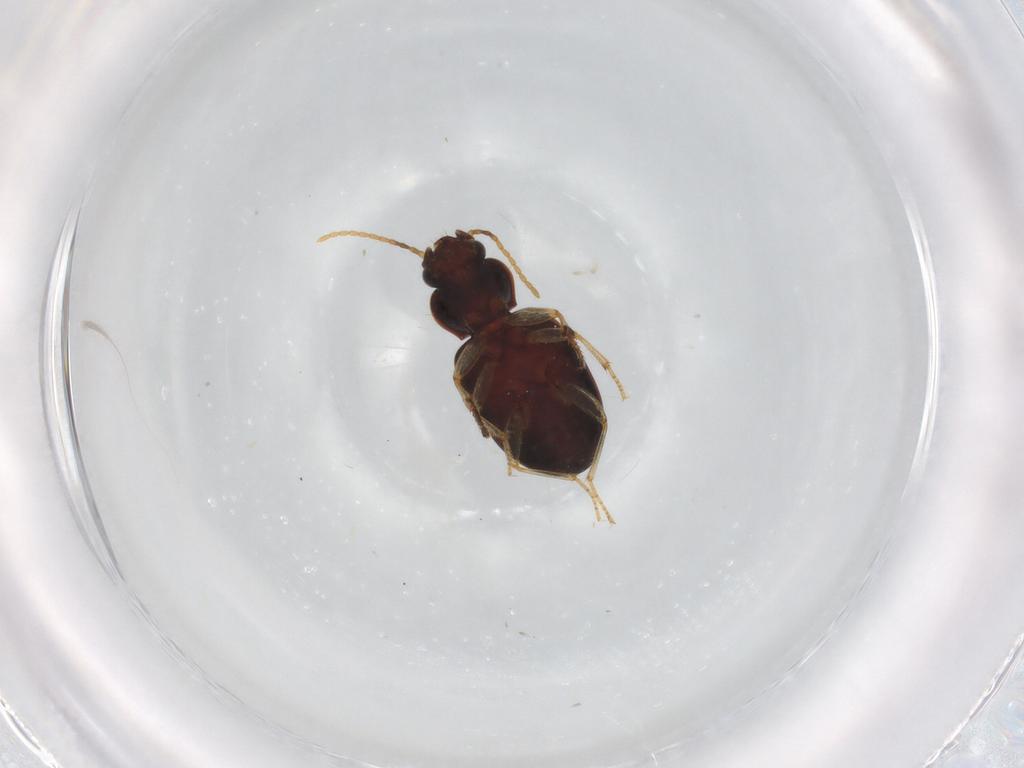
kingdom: Animalia
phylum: Arthropoda
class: Insecta
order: Coleoptera
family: Carabidae
